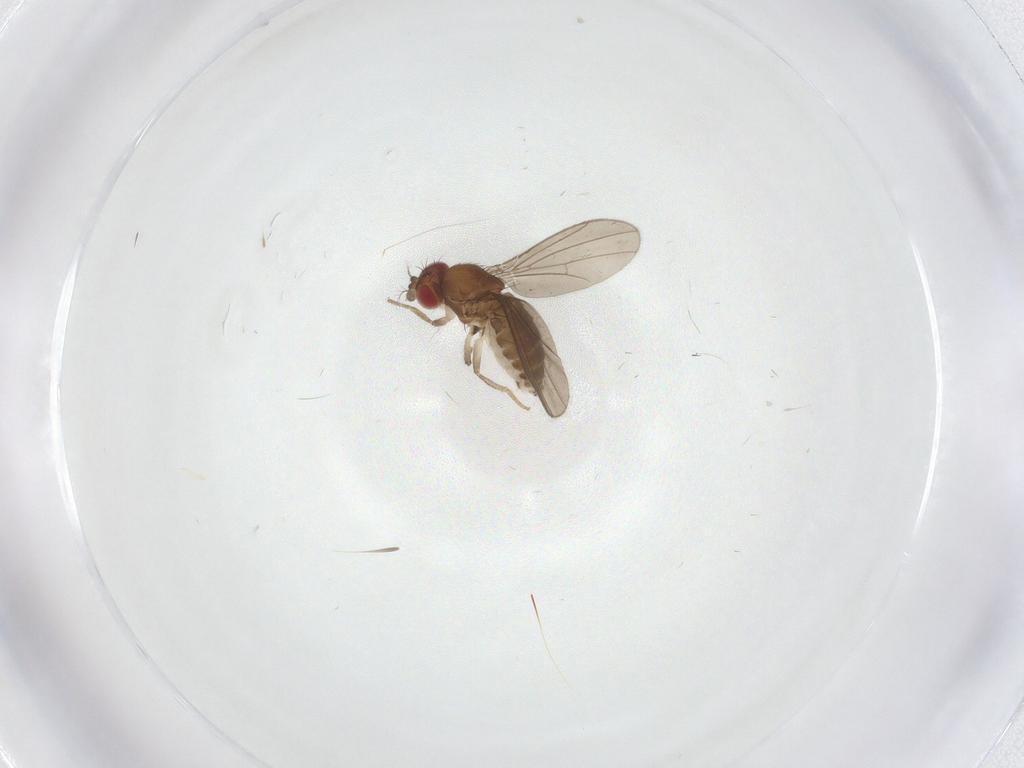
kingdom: Animalia
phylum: Arthropoda
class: Insecta
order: Diptera
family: Drosophilidae
